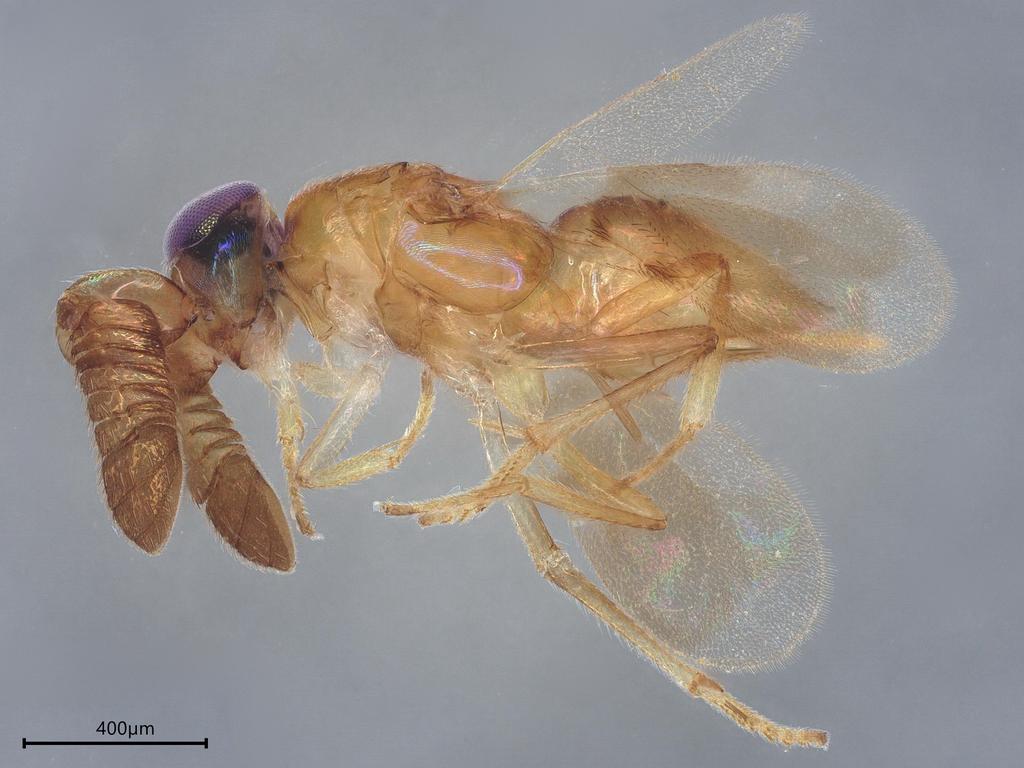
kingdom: Animalia
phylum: Arthropoda
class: Insecta
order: Hymenoptera
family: Encyrtidae
